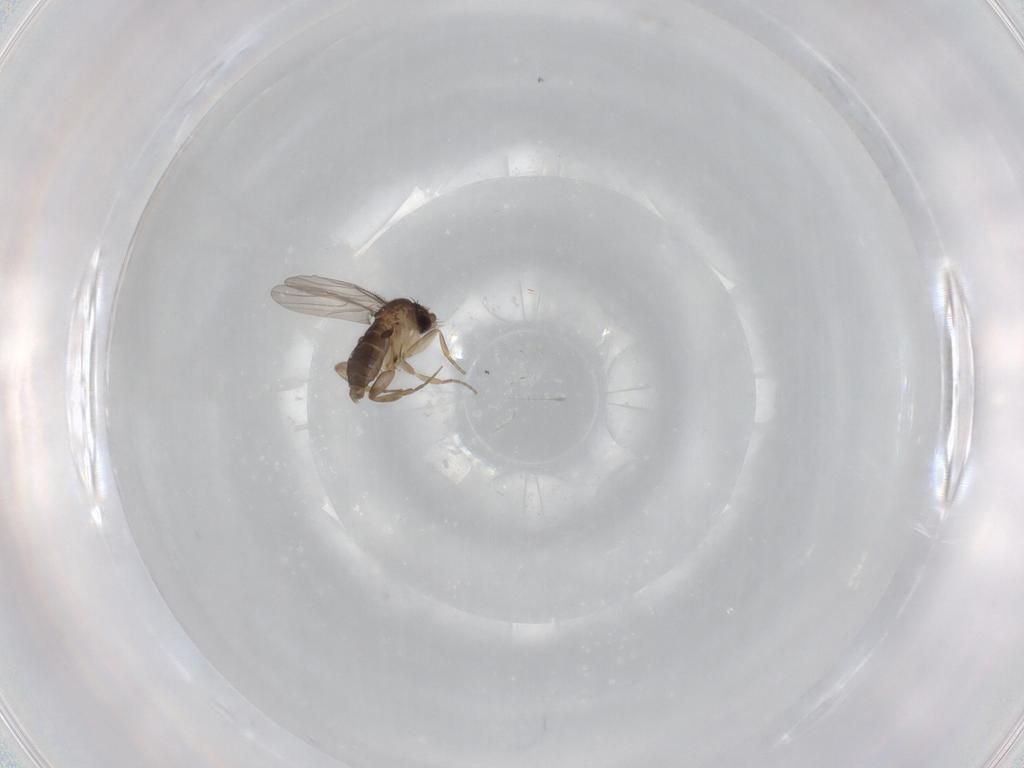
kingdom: Animalia
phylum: Arthropoda
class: Insecta
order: Diptera
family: Phoridae
